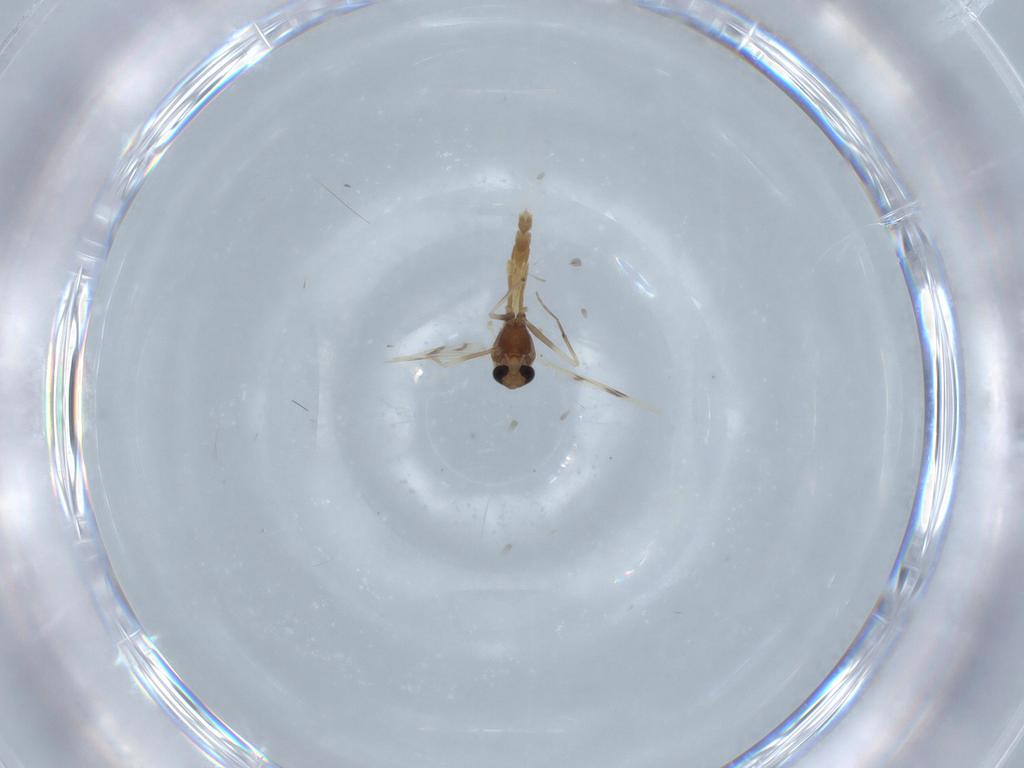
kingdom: Animalia
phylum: Arthropoda
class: Insecta
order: Diptera
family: Chironomidae
